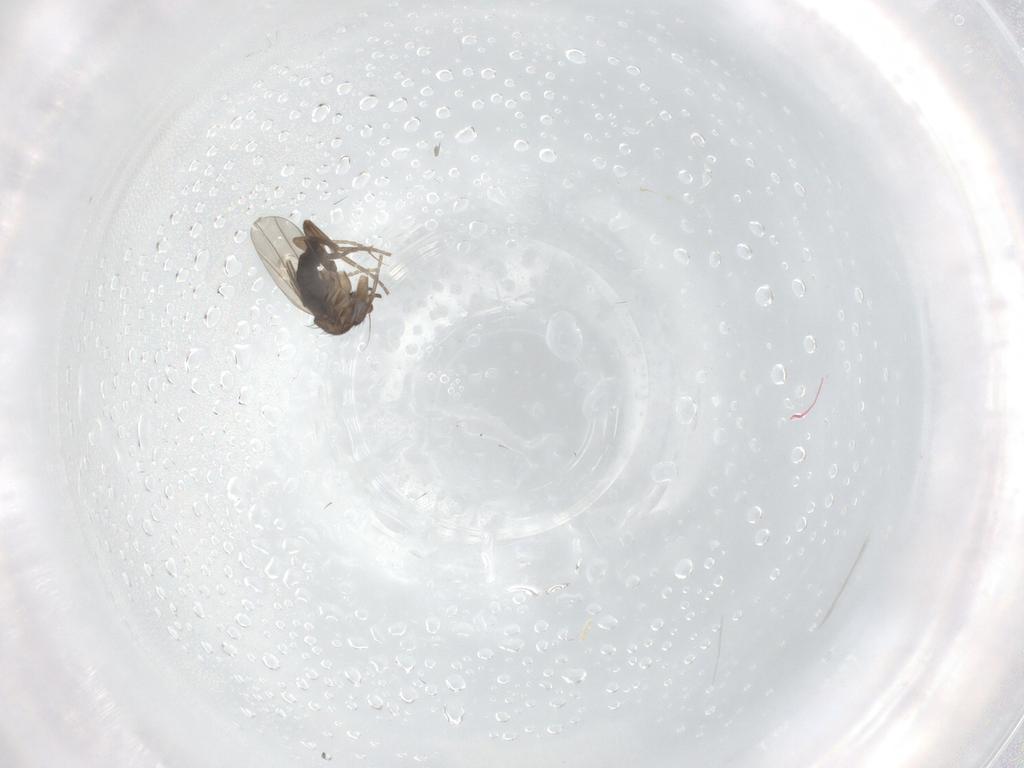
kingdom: Animalia
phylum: Arthropoda
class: Insecta
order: Diptera
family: Phoridae
